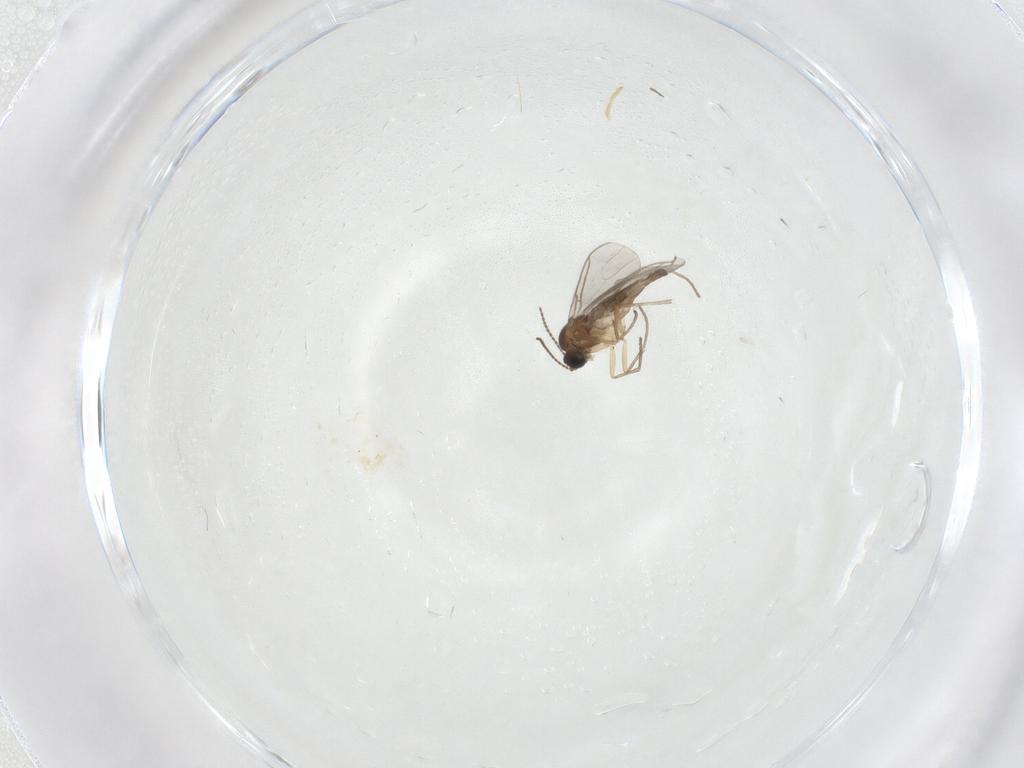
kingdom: Animalia
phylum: Arthropoda
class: Insecta
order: Diptera
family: Sciaridae
